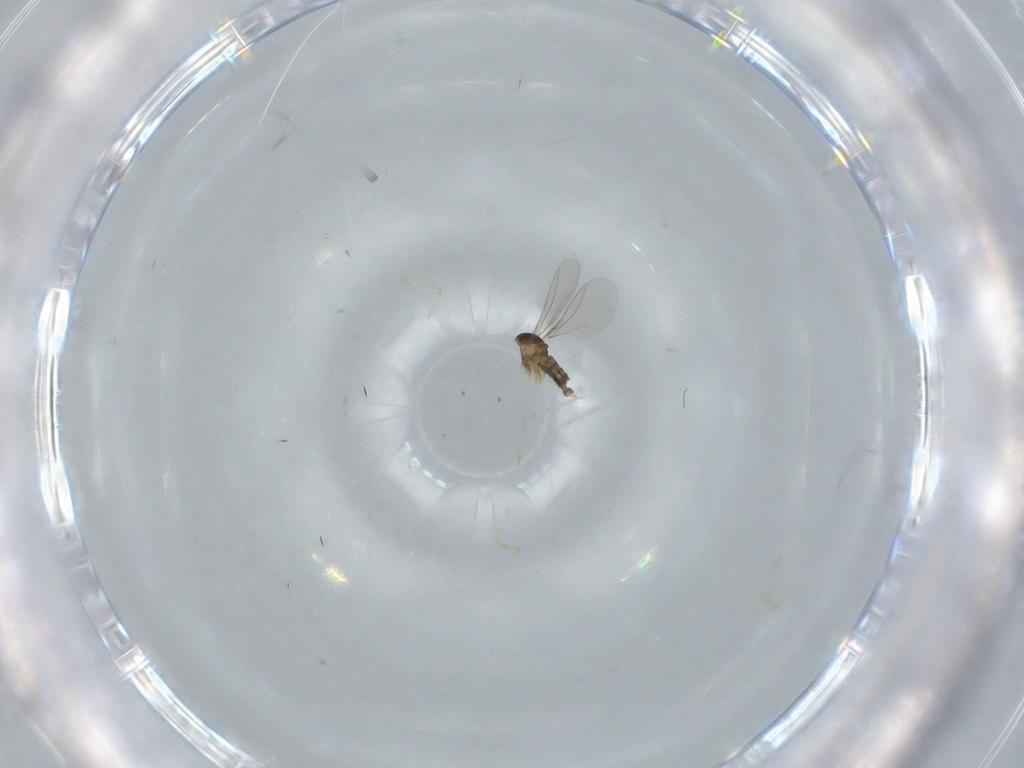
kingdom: Animalia
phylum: Arthropoda
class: Insecta
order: Diptera
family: Cecidomyiidae
